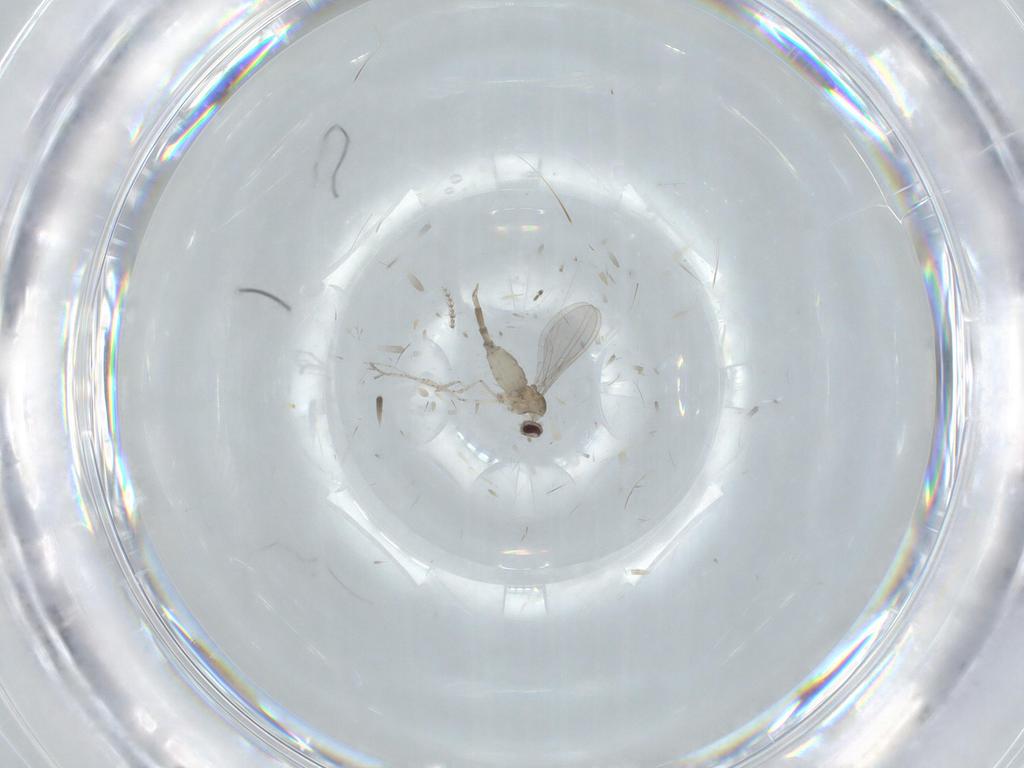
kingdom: Animalia
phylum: Arthropoda
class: Insecta
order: Diptera
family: Cecidomyiidae
